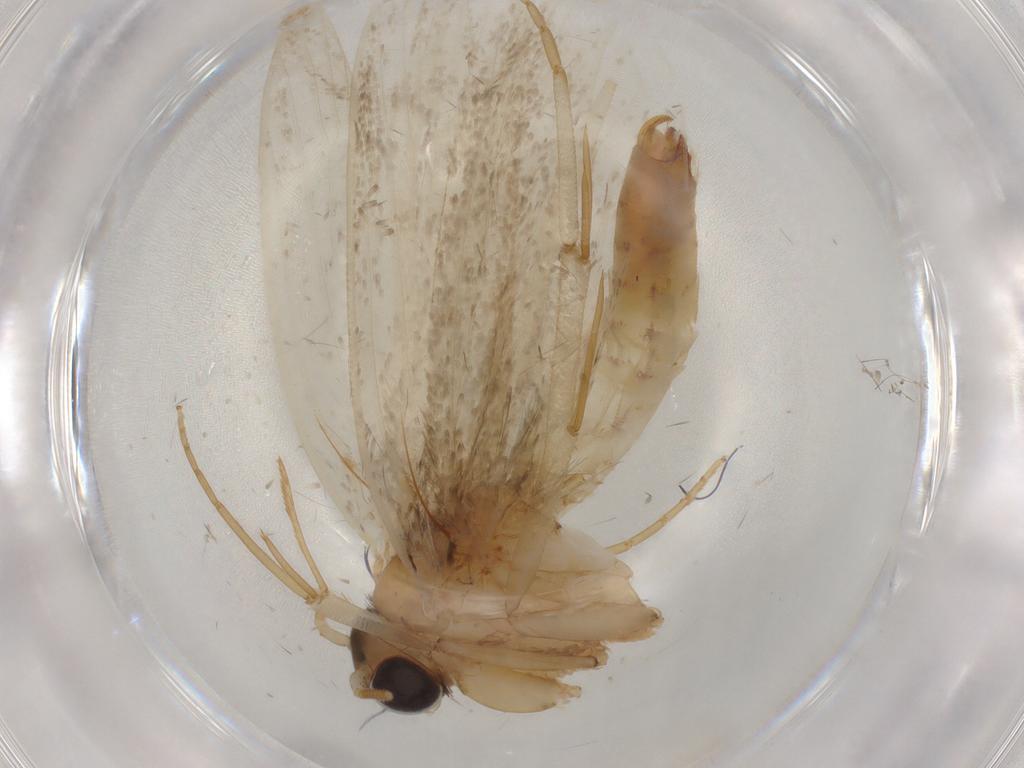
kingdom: Animalia
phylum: Arthropoda
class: Insecta
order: Lepidoptera
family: Tineidae
